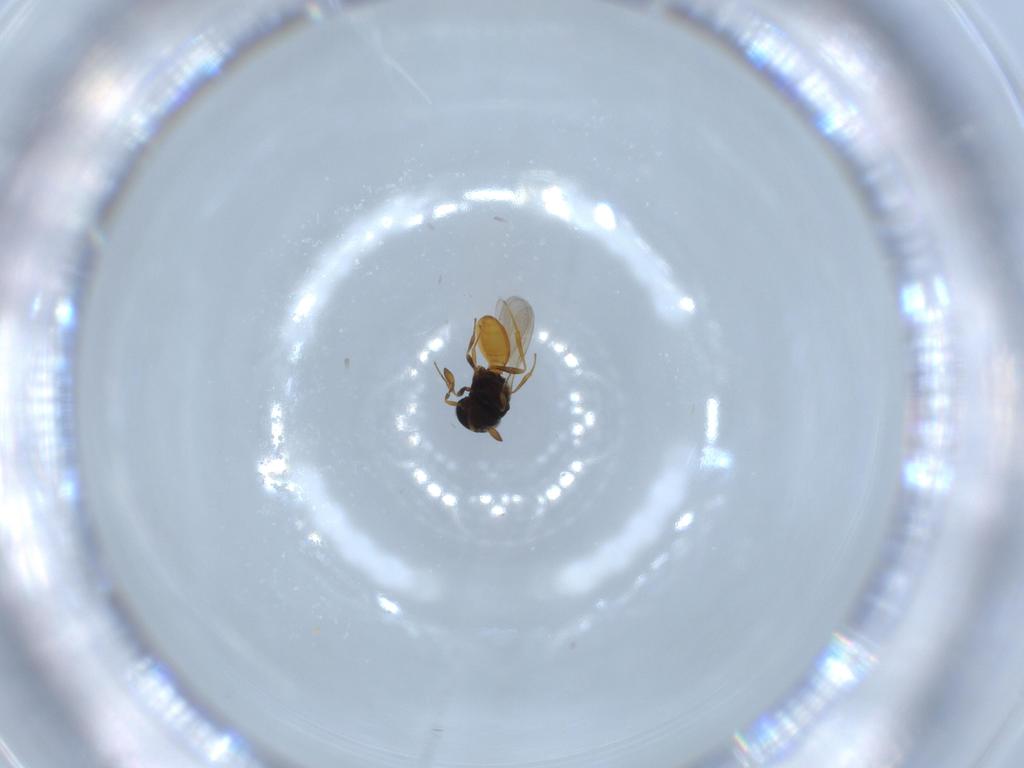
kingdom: Animalia
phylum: Arthropoda
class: Insecta
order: Hymenoptera
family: Scelionidae
